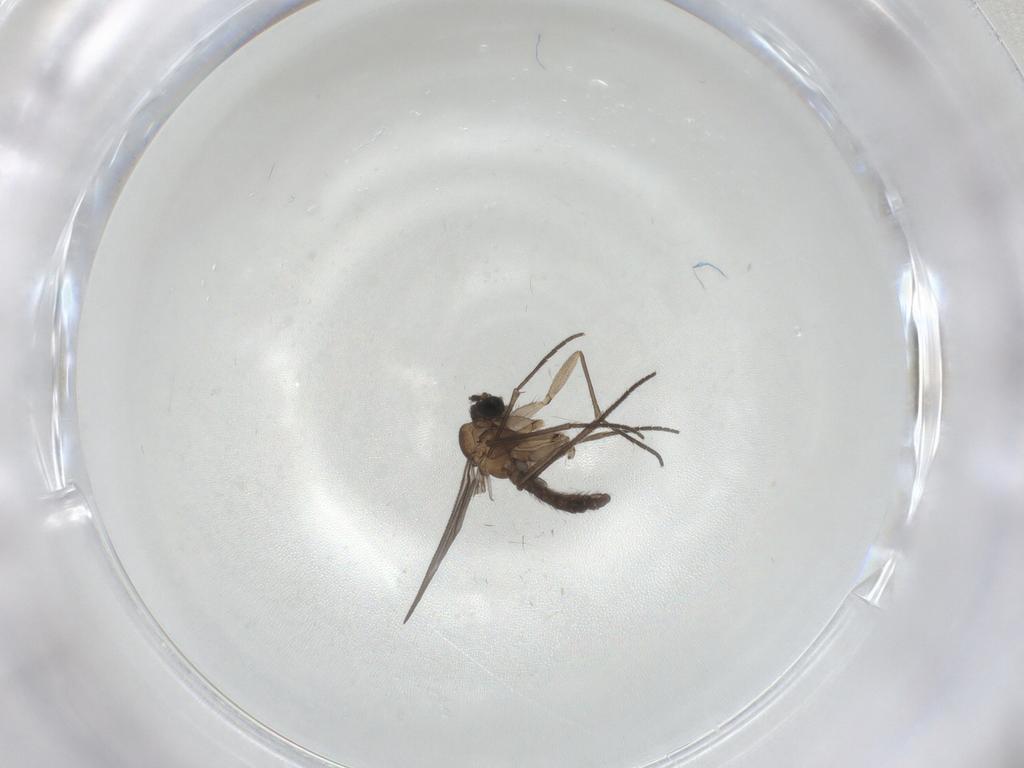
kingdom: Animalia
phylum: Arthropoda
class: Insecta
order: Diptera
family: Sciaridae
